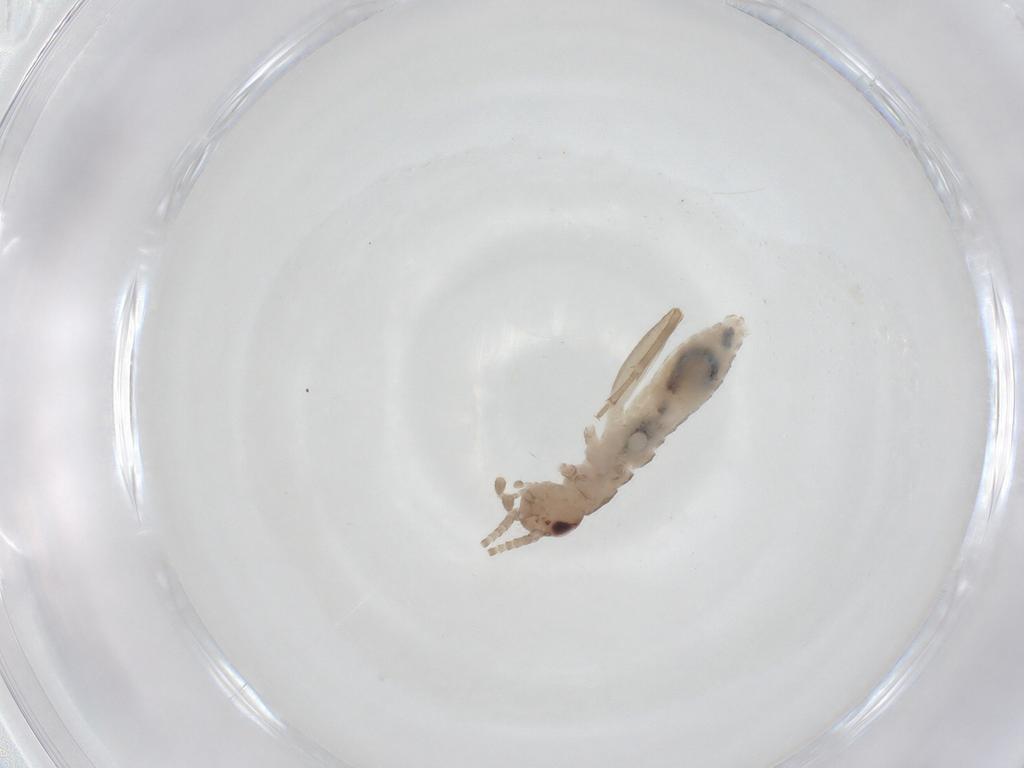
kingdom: Animalia
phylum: Arthropoda
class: Insecta
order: Orthoptera
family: Gryllidae
